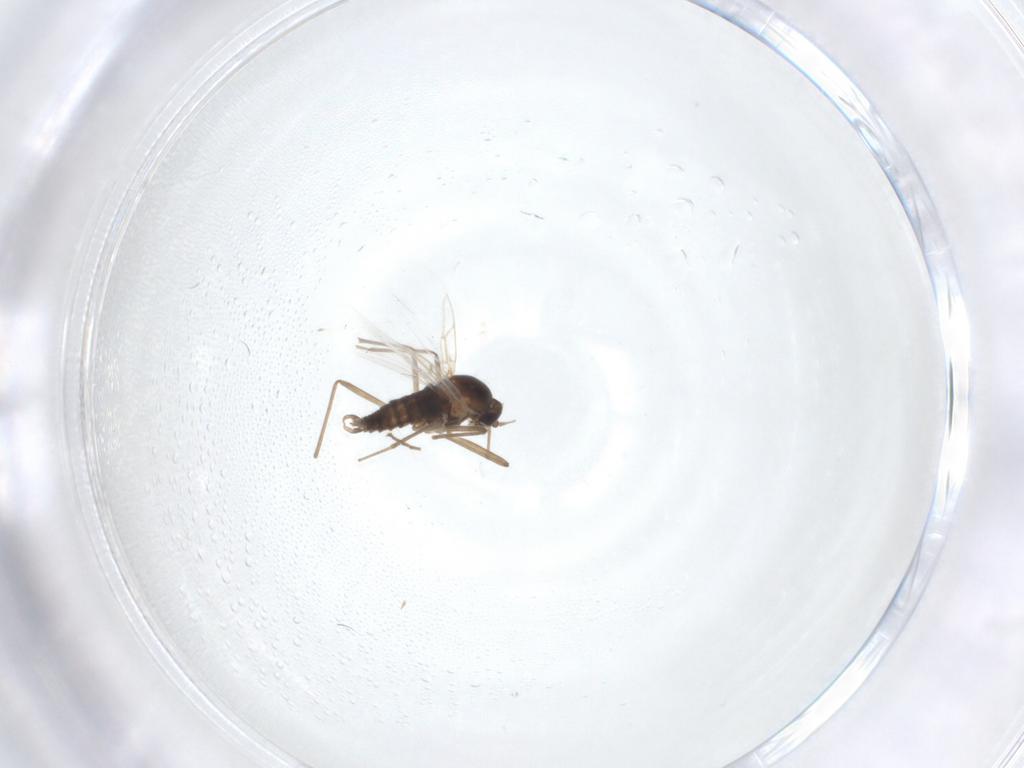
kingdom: Animalia
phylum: Arthropoda
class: Insecta
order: Diptera
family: Cecidomyiidae
